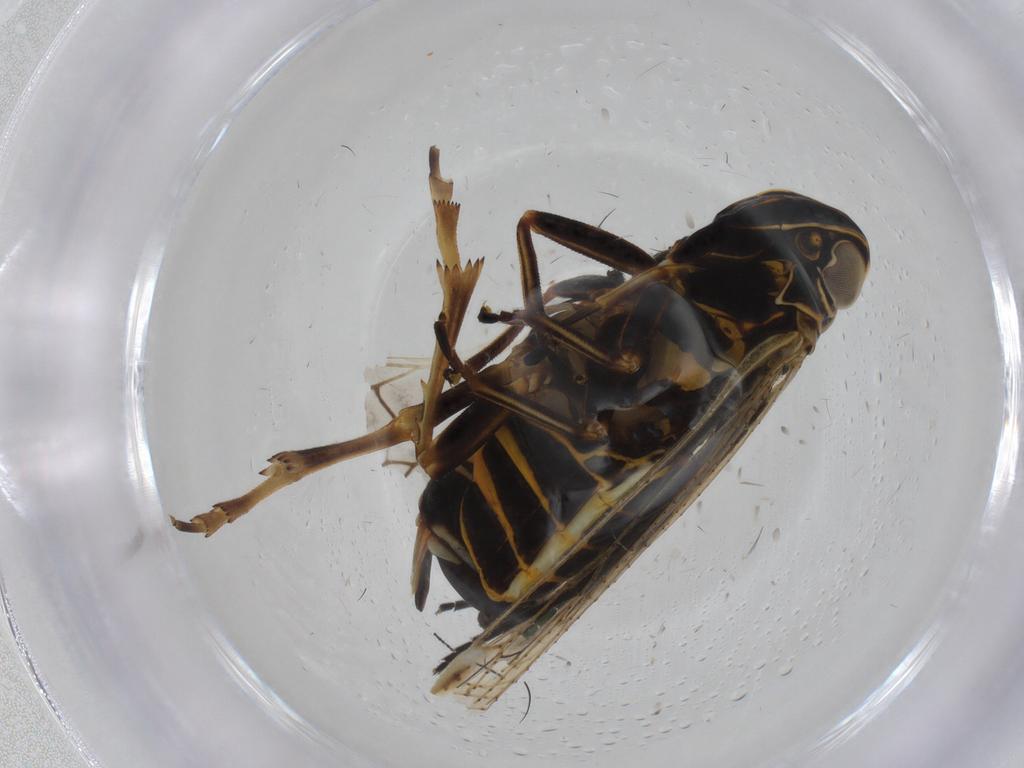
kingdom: Animalia
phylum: Arthropoda
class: Insecta
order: Hemiptera
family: Cixiidae
